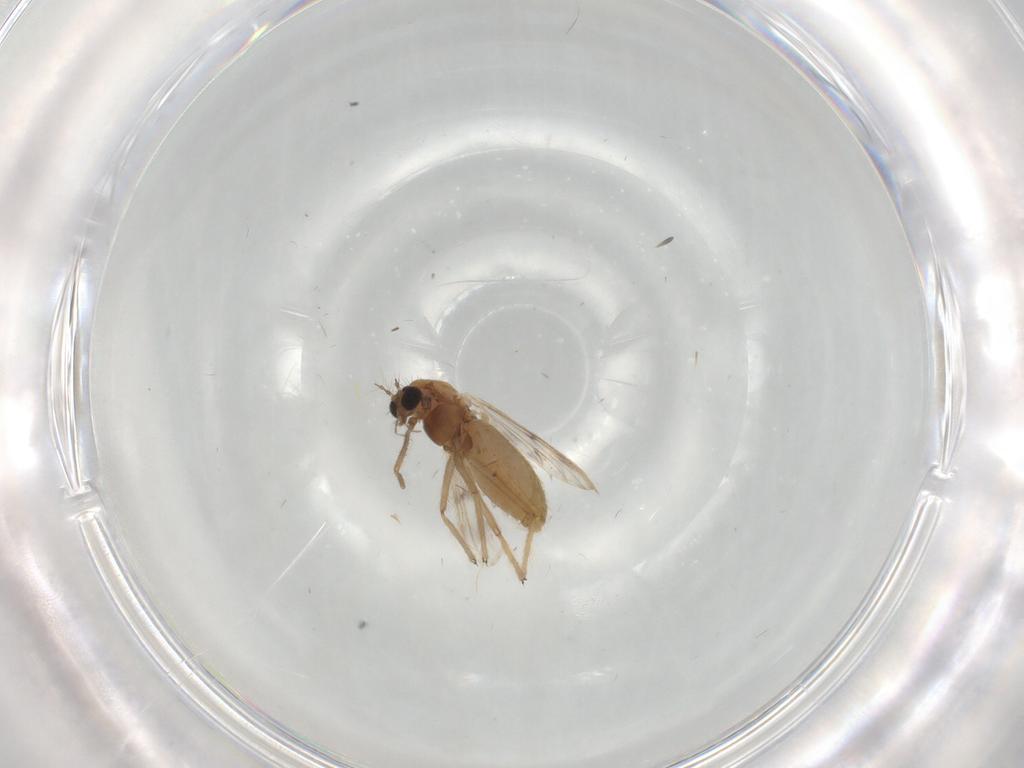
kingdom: Animalia
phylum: Arthropoda
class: Insecta
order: Diptera
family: Chironomidae
